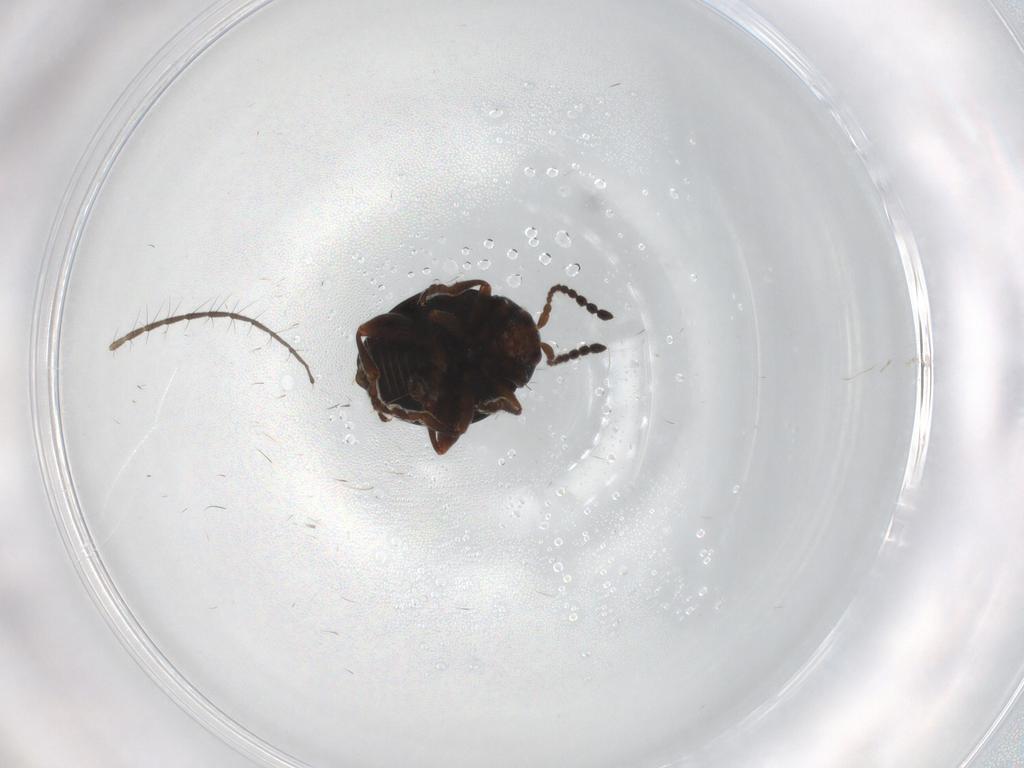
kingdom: Animalia
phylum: Arthropoda
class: Insecta
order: Coleoptera
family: Chrysomelidae
